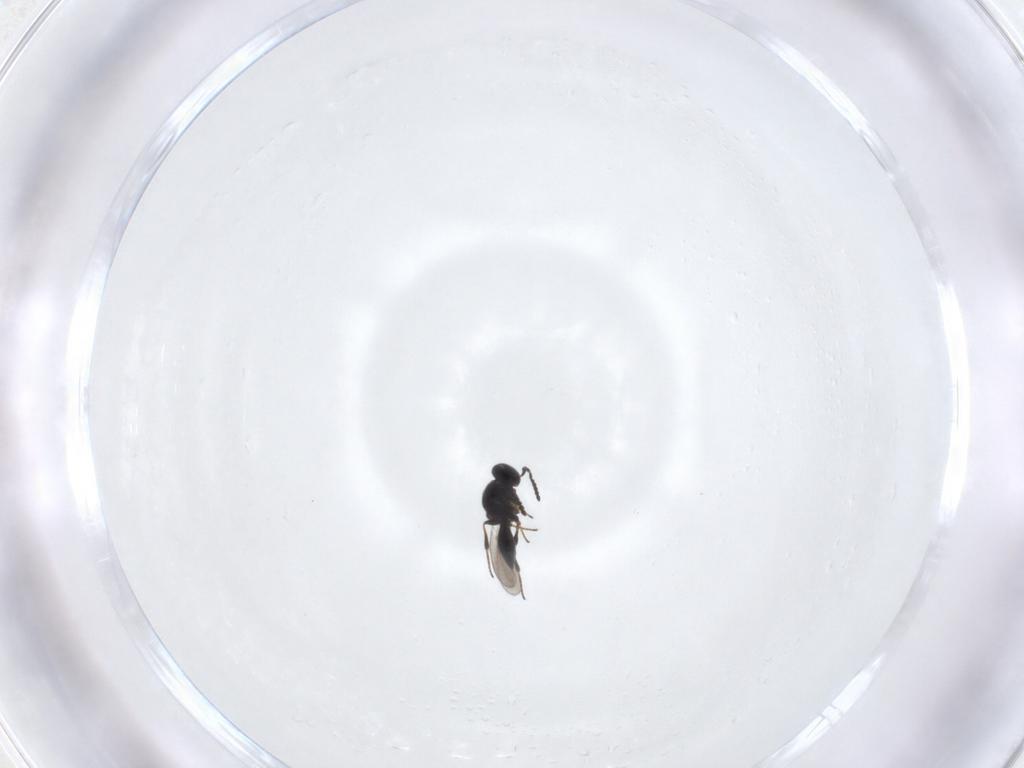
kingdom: Animalia
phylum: Arthropoda
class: Insecta
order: Hymenoptera
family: Platygastridae
